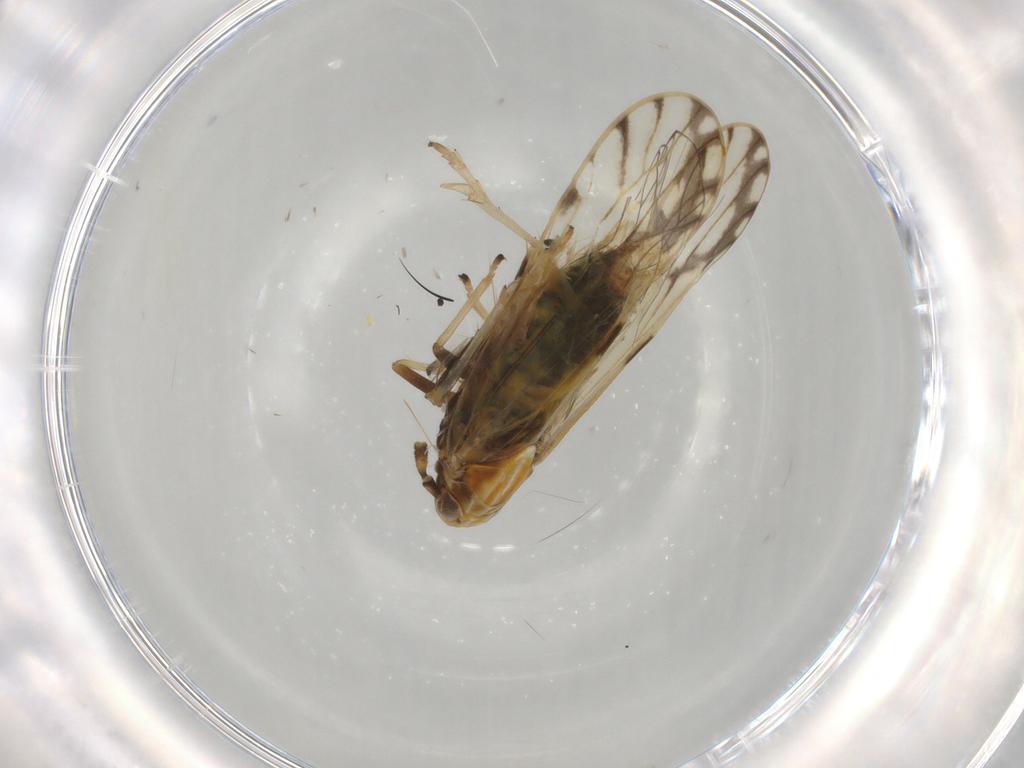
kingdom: Animalia
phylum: Arthropoda
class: Insecta
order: Hemiptera
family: Delphacidae
